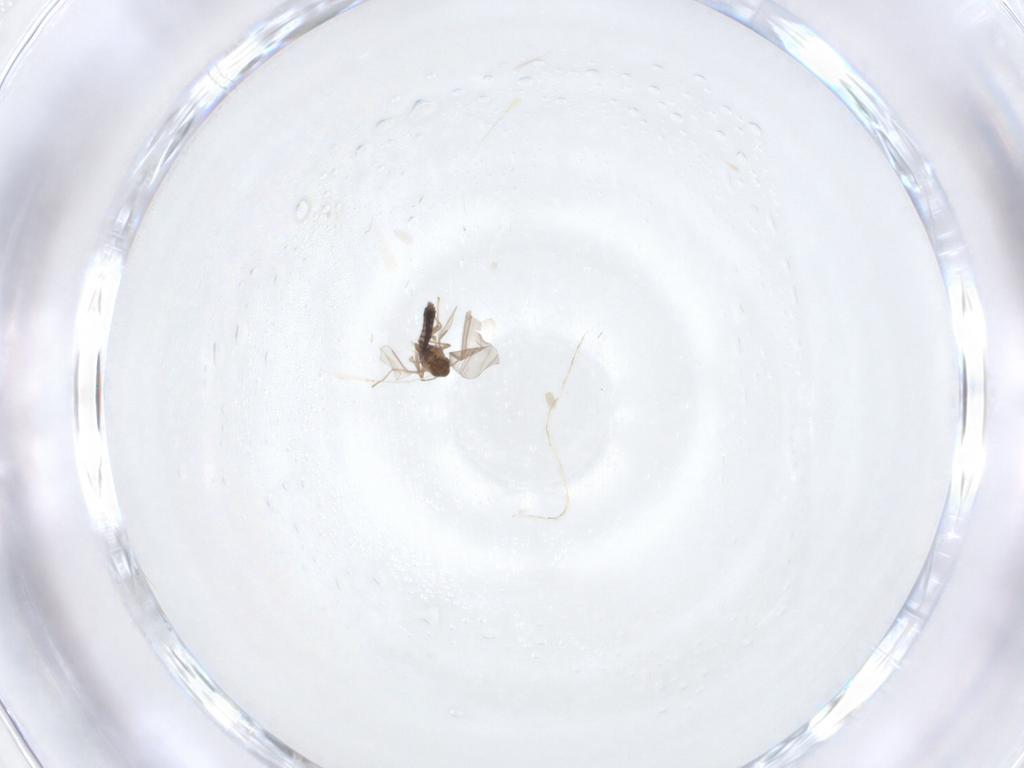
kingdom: Animalia
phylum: Arthropoda
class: Insecta
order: Diptera
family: Chironomidae
